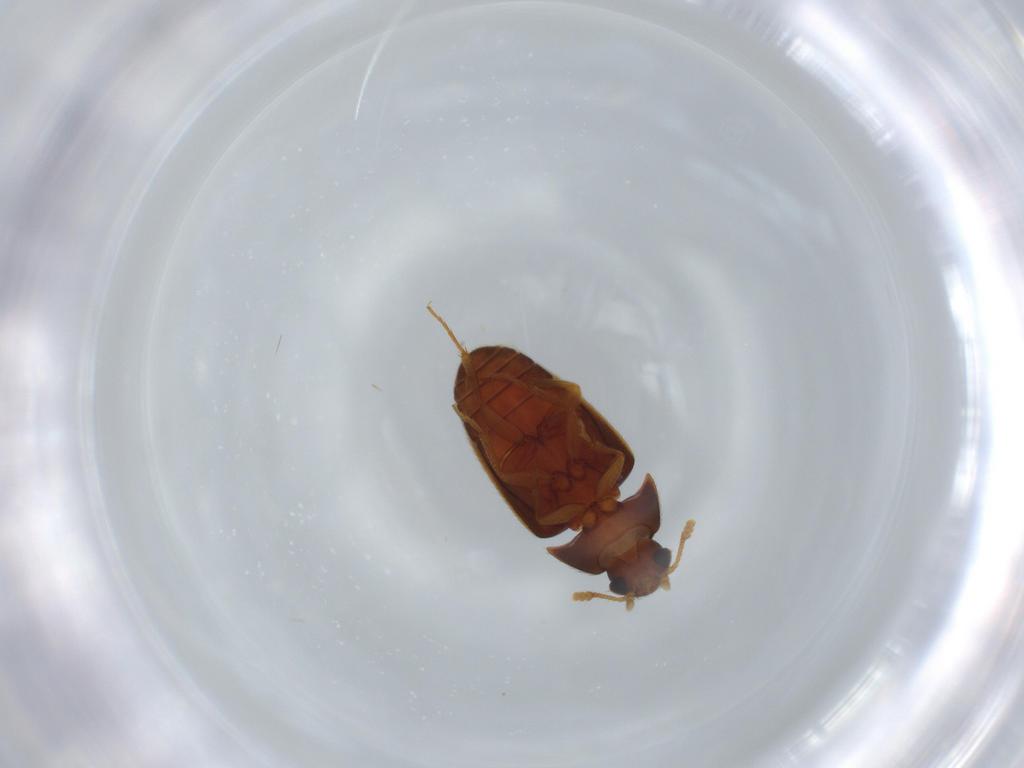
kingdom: Animalia
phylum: Arthropoda
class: Insecta
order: Coleoptera
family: Mycetophagidae
